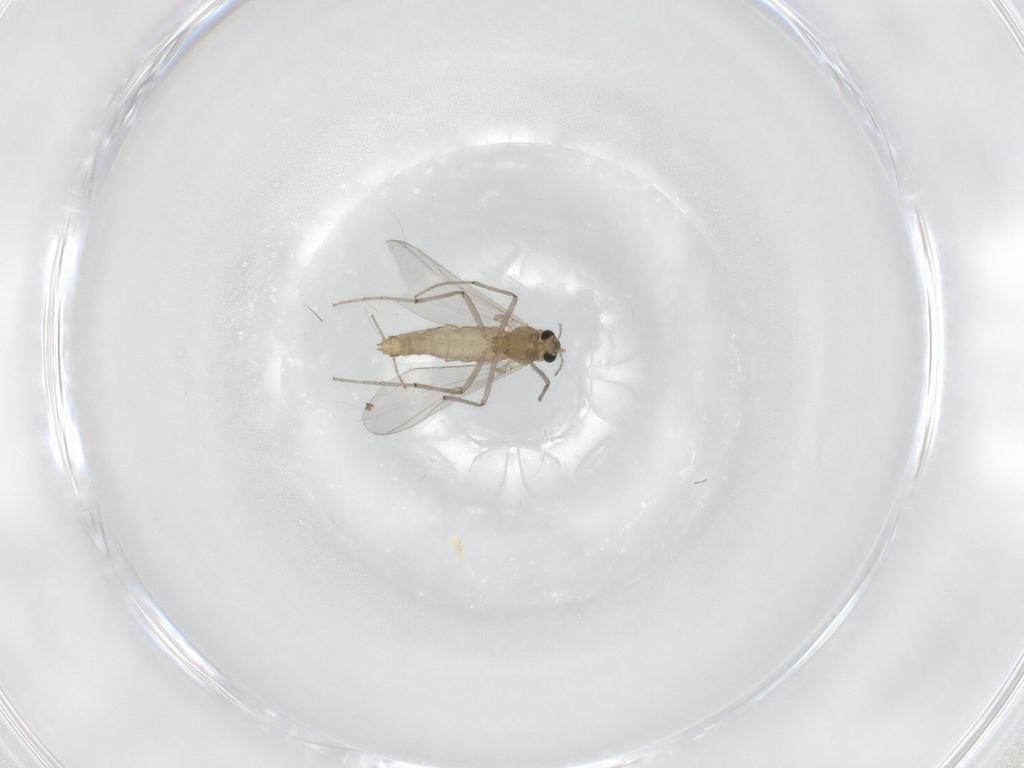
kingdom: Animalia
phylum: Arthropoda
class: Insecta
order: Diptera
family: Chironomidae
